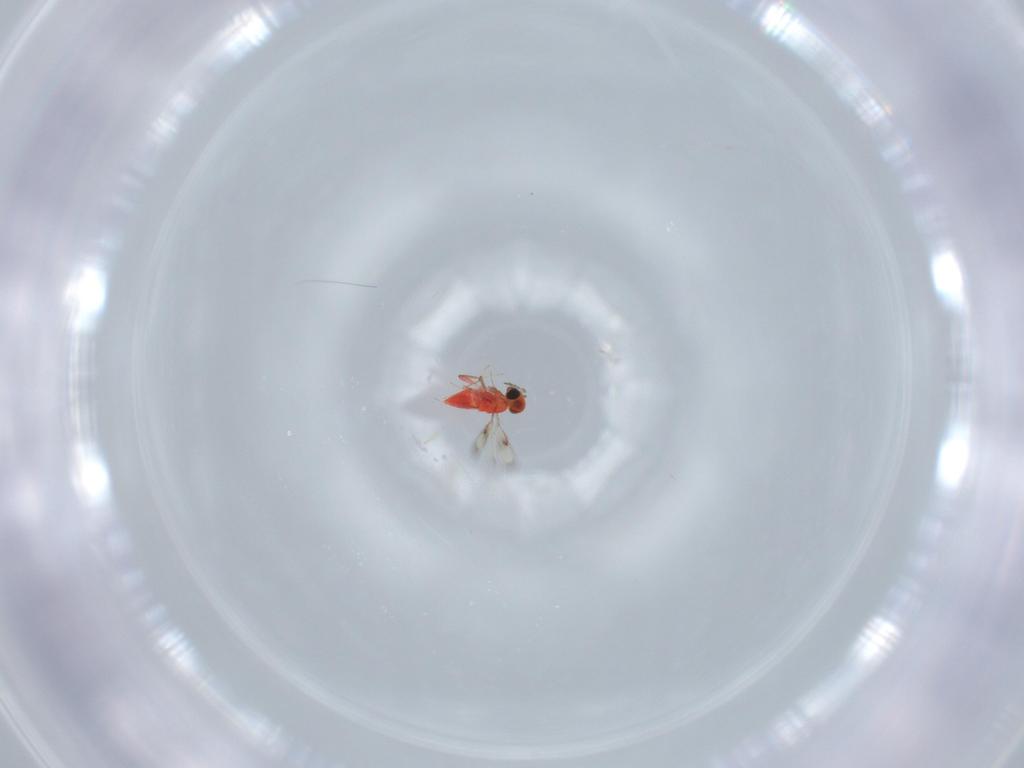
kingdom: Animalia
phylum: Arthropoda
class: Insecta
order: Hymenoptera
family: Trichogrammatidae
